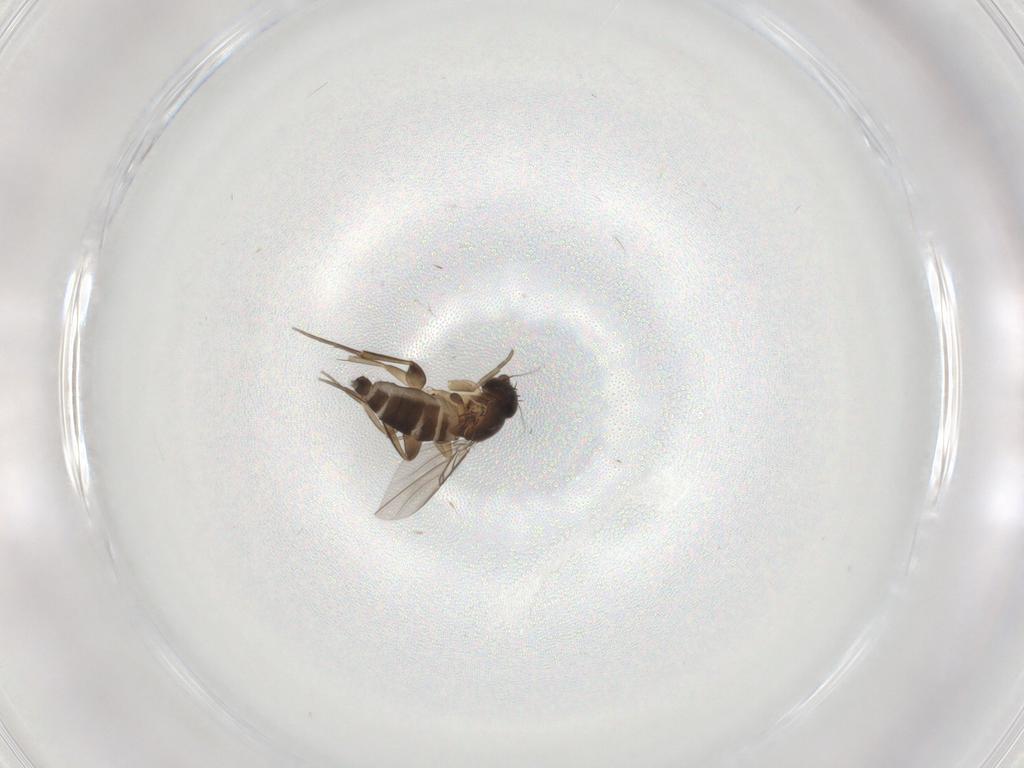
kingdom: Animalia
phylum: Arthropoda
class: Insecta
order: Diptera
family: Phoridae
